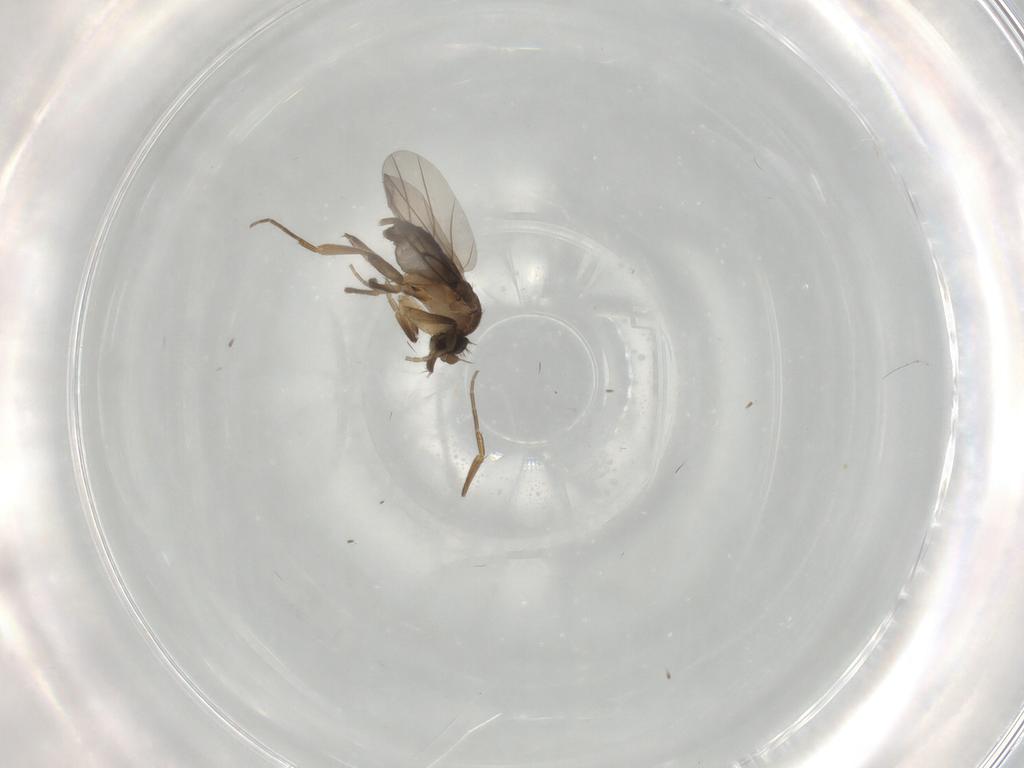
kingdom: Animalia
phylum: Arthropoda
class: Insecta
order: Diptera
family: Phoridae
